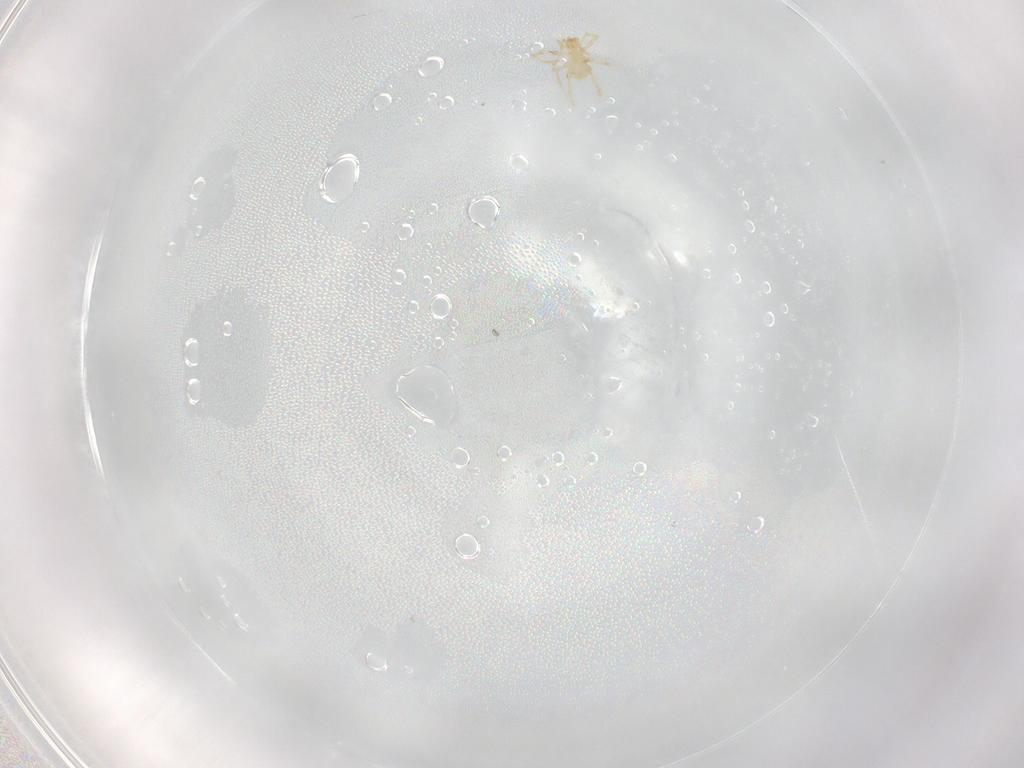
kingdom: Animalia
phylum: Arthropoda
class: Arachnida
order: Trombidiformes
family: Erythraeidae
